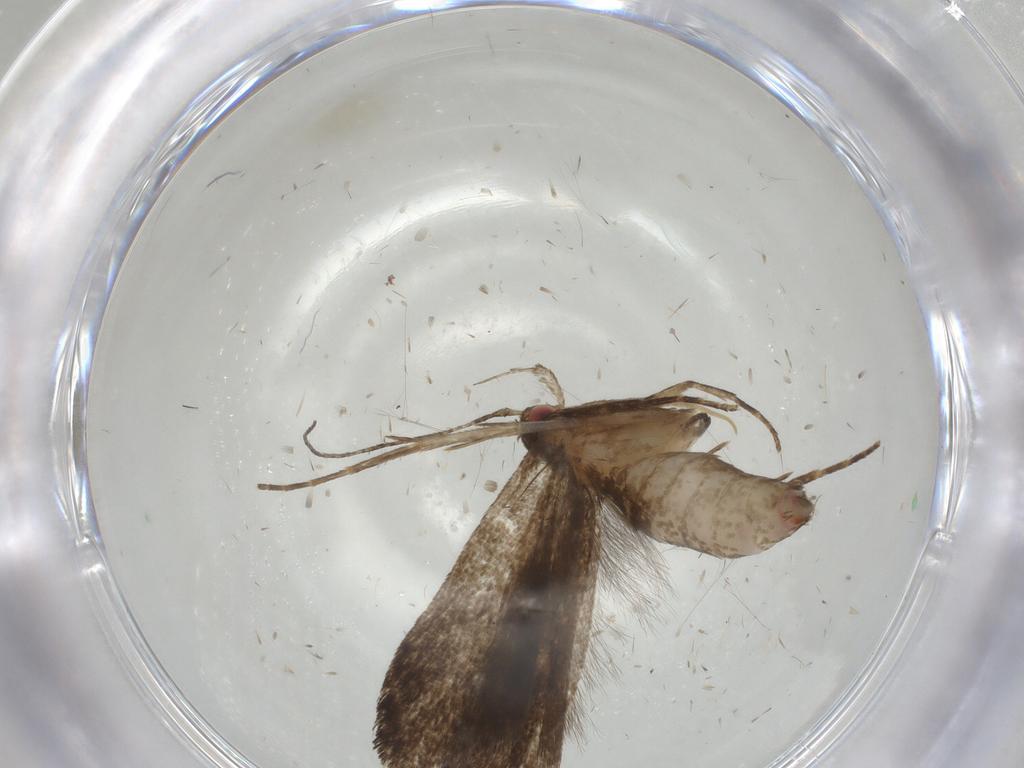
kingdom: Animalia
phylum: Arthropoda
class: Insecta
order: Lepidoptera
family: Gelechiidae
